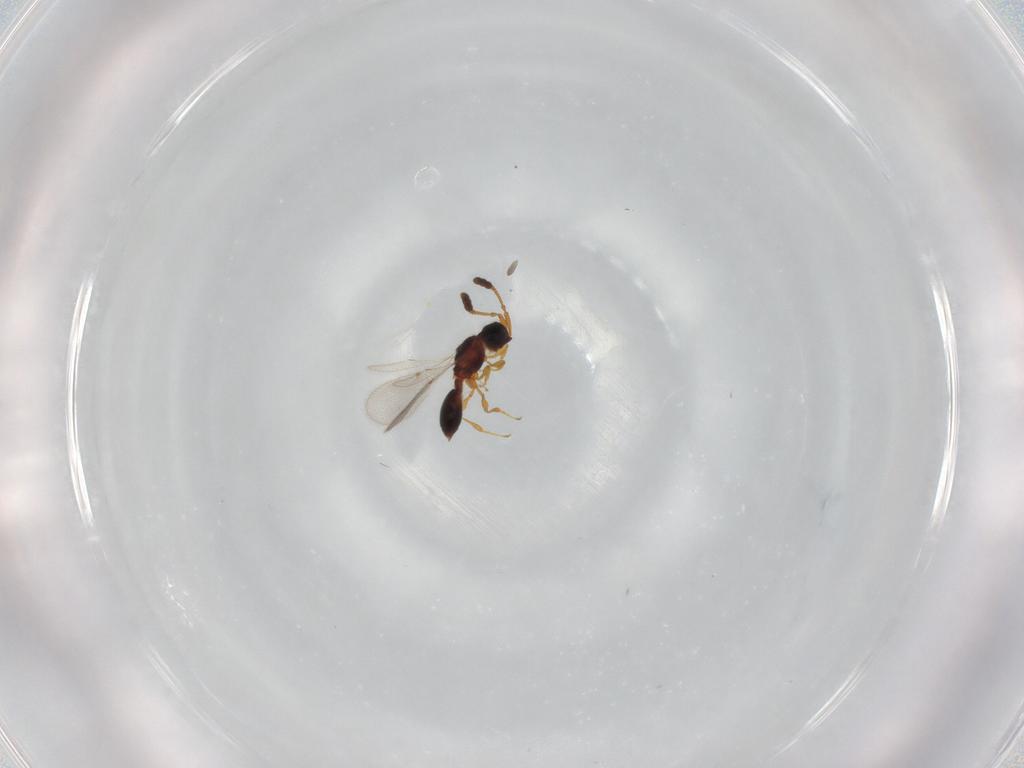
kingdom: Animalia
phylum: Arthropoda
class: Insecta
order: Hymenoptera
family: Diapriidae
